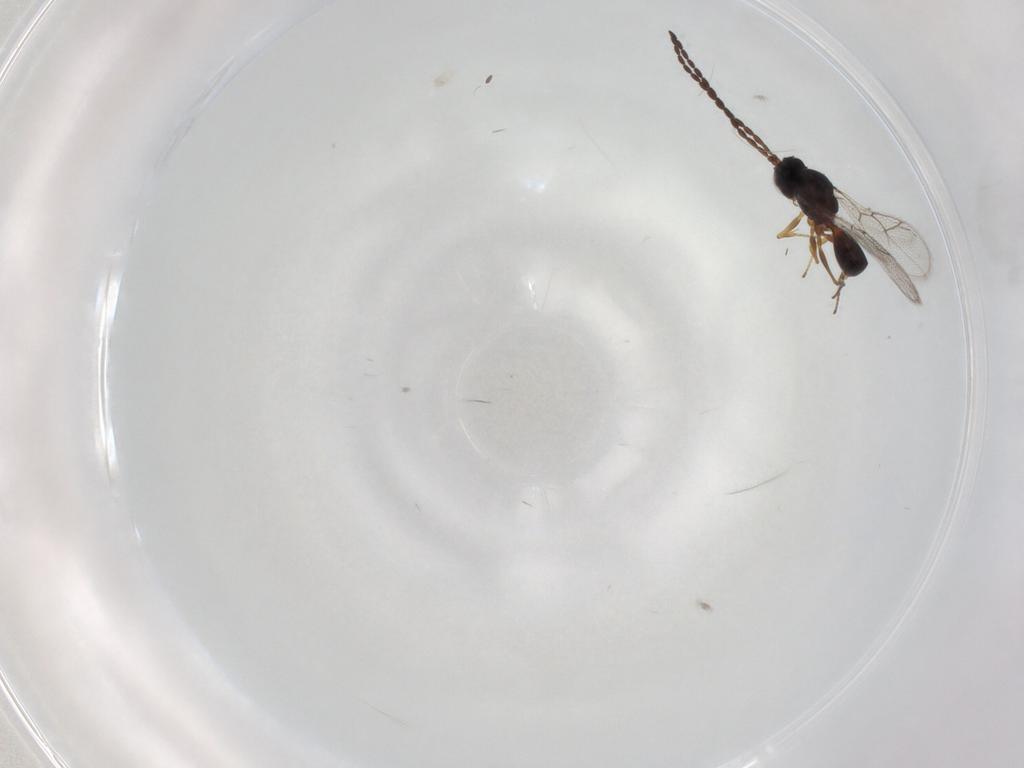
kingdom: Animalia
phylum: Arthropoda
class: Insecta
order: Hymenoptera
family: Figitidae
